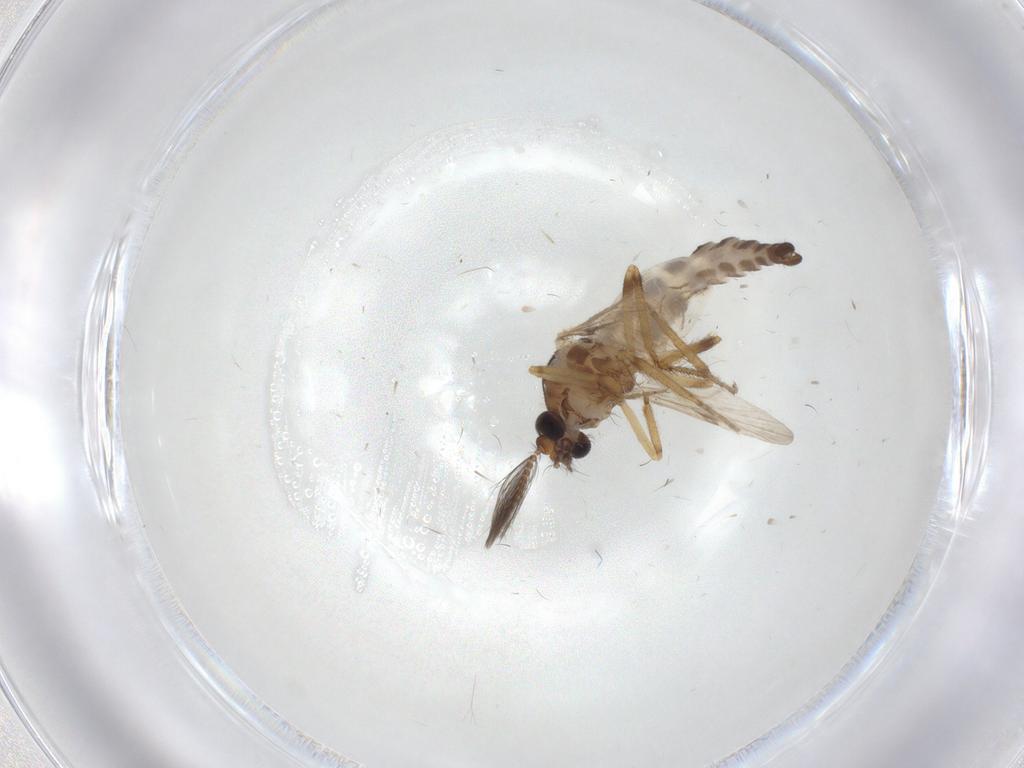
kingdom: Animalia
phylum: Arthropoda
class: Insecta
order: Diptera
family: Ceratopogonidae
